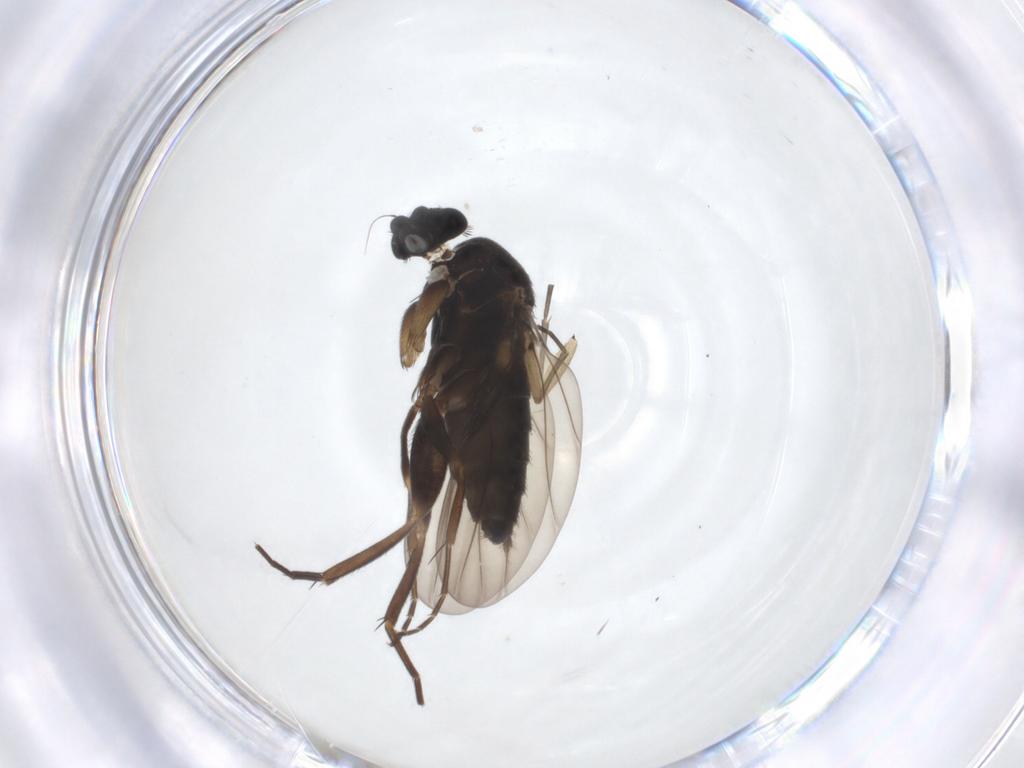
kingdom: Animalia
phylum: Arthropoda
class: Insecta
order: Diptera
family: Phoridae
